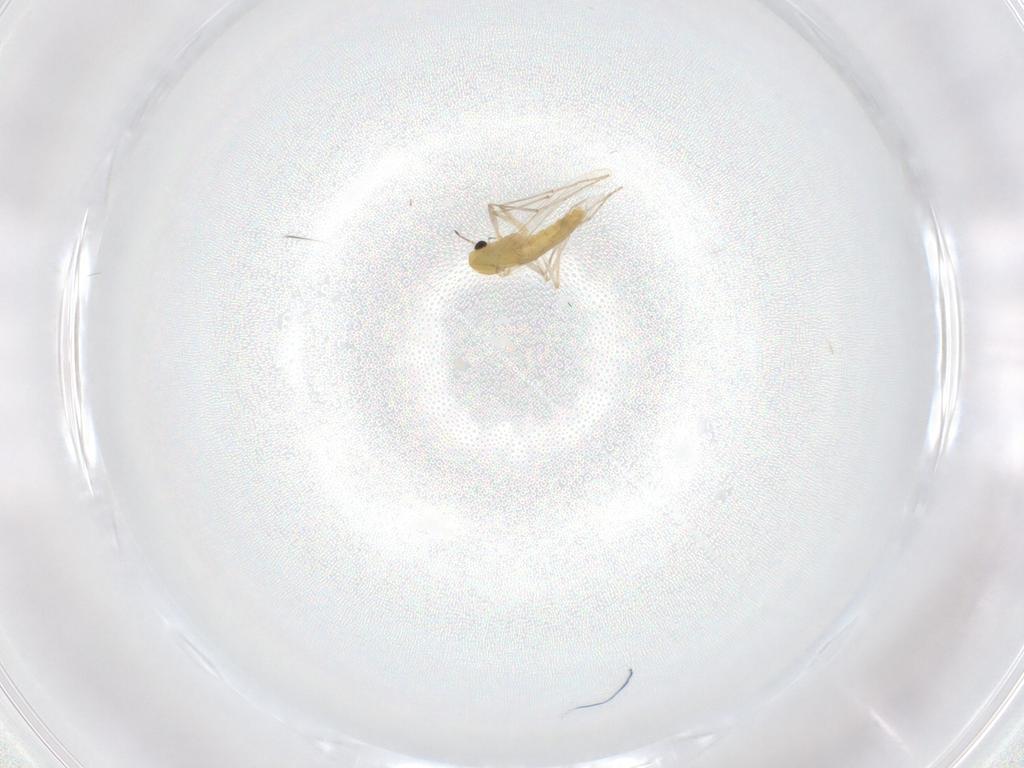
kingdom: Animalia
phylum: Arthropoda
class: Insecta
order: Diptera
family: Chironomidae
